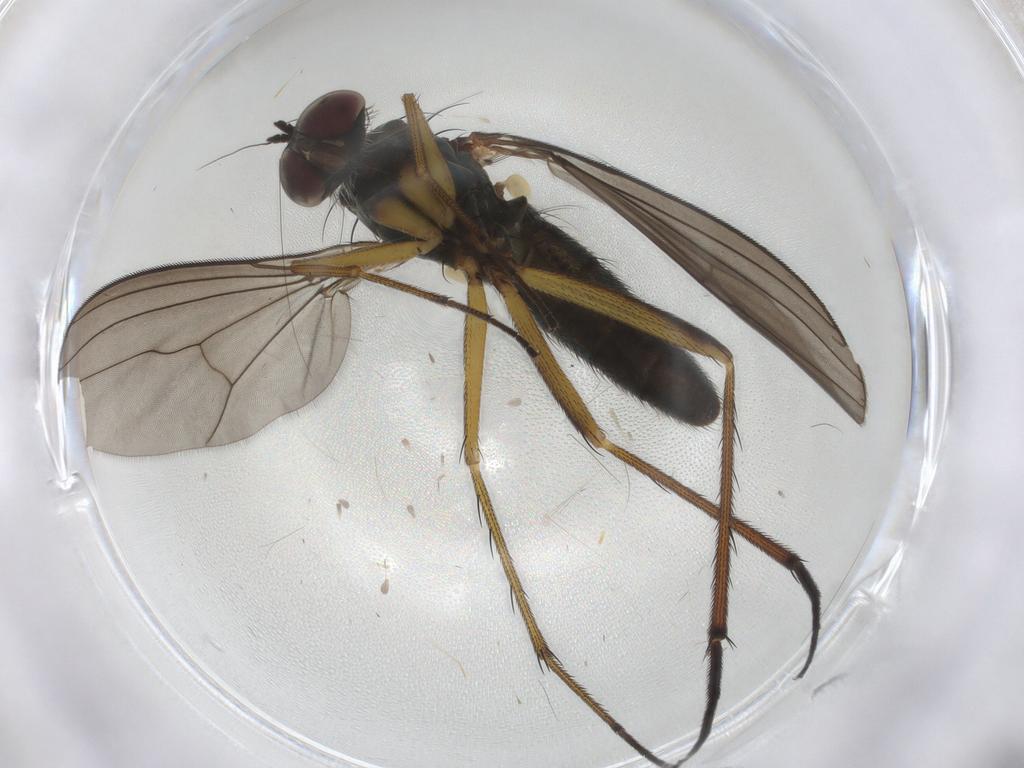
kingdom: Animalia
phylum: Arthropoda
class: Insecta
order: Diptera
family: Dolichopodidae
